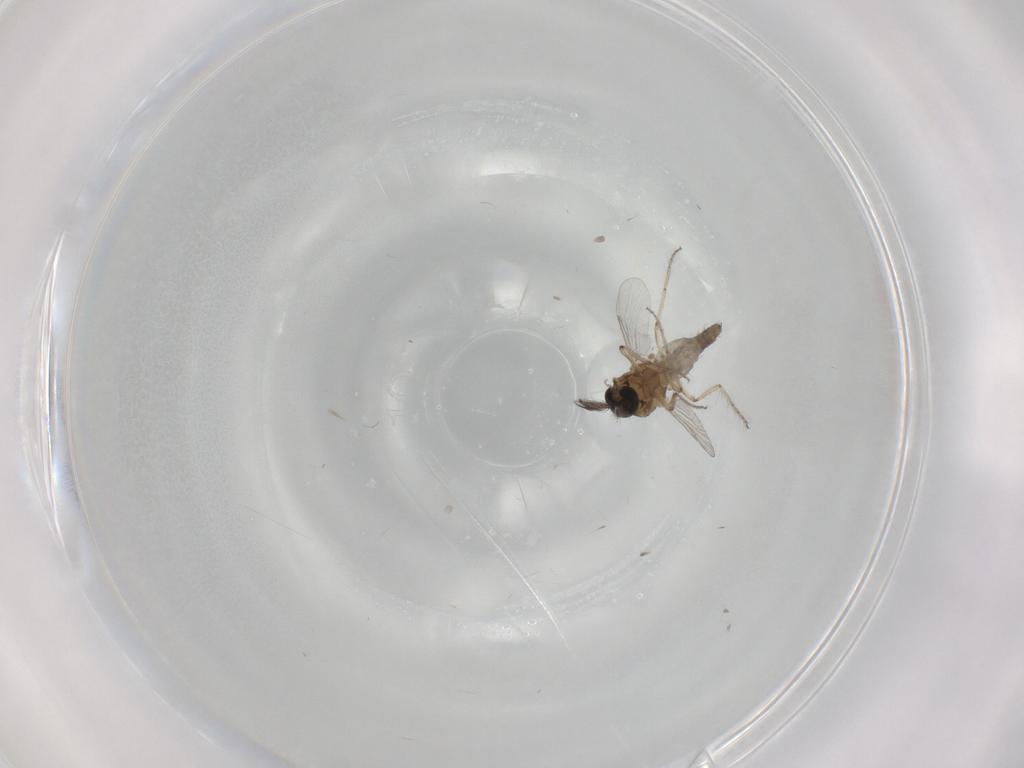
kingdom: Animalia
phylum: Arthropoda
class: Insecta
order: Diptera
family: Ceratopogonidae
